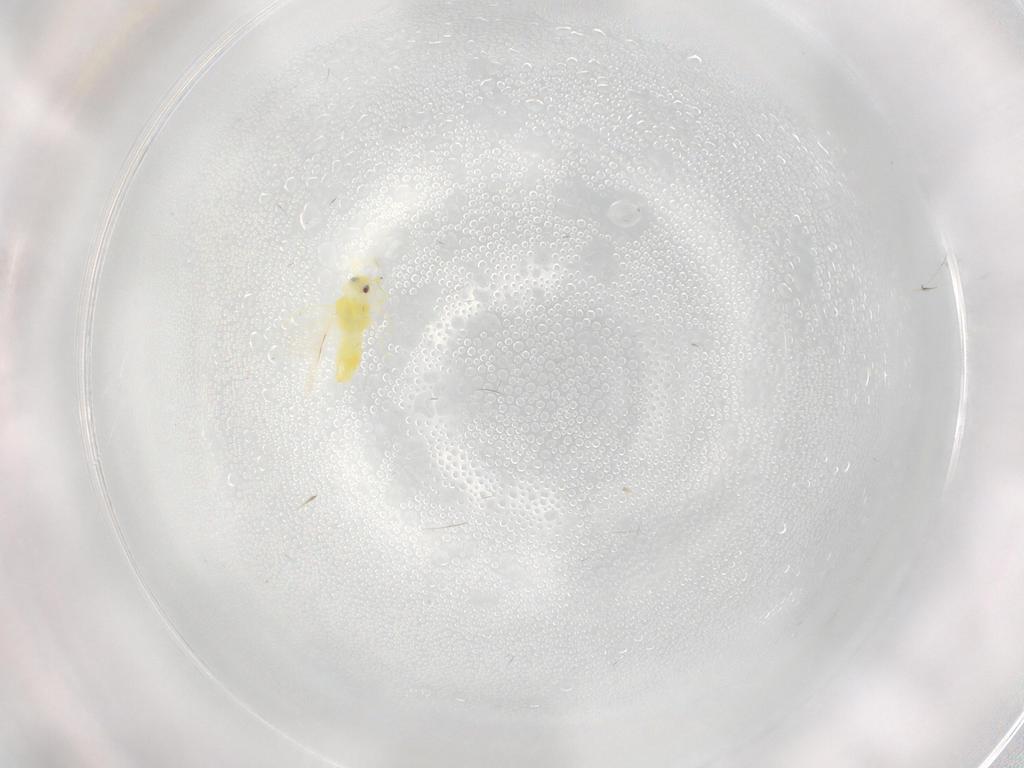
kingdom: Animalia
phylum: Arthropoda
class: Insecta
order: Hemiptera
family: Aleyrodidae
